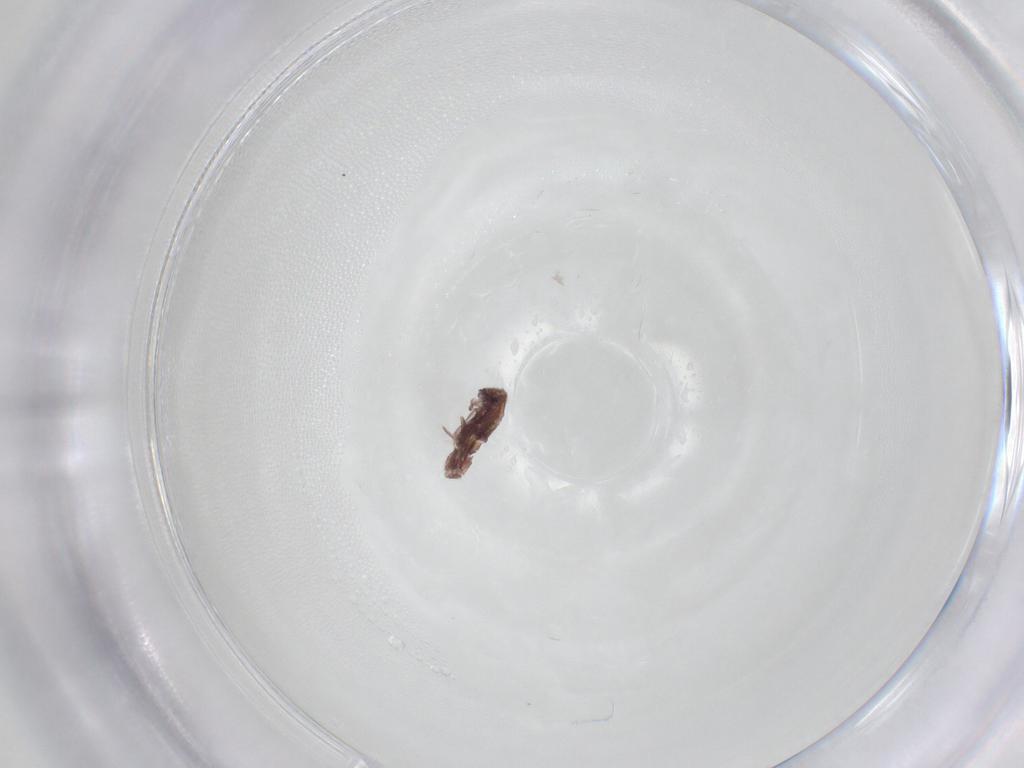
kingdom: Animalia
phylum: Arthropoda
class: Collembola
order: Entomobryomorpha
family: Entomobryidae
